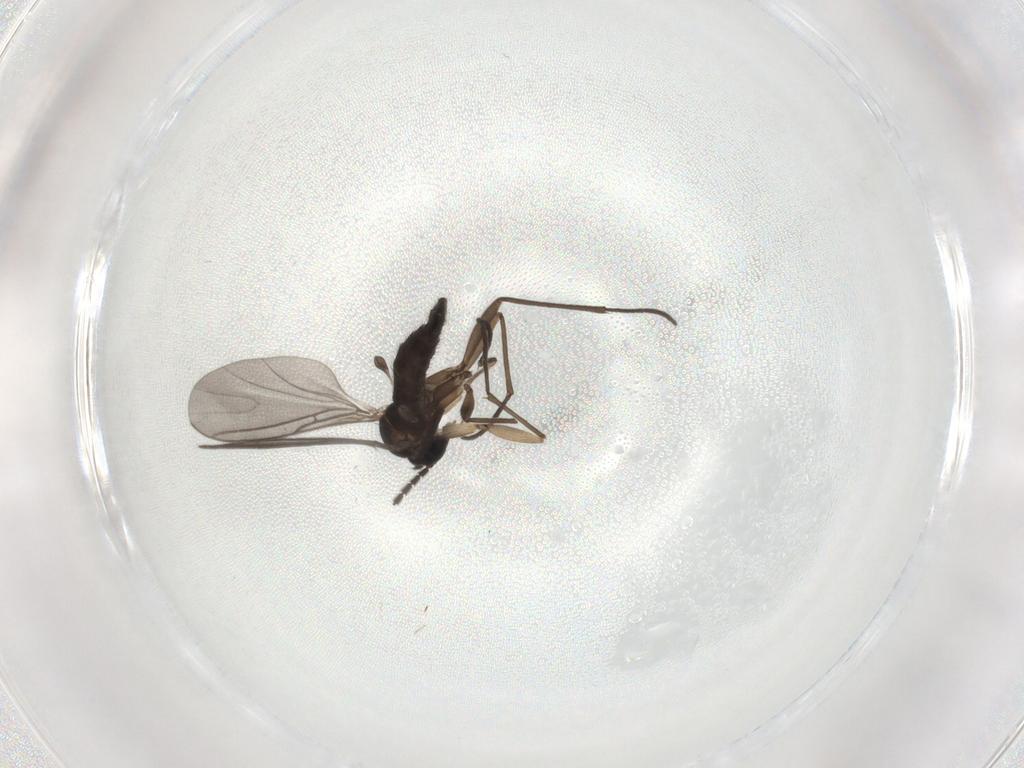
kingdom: Animalia
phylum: Arthropoda
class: Insecta
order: Diptera
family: Sciaridae
